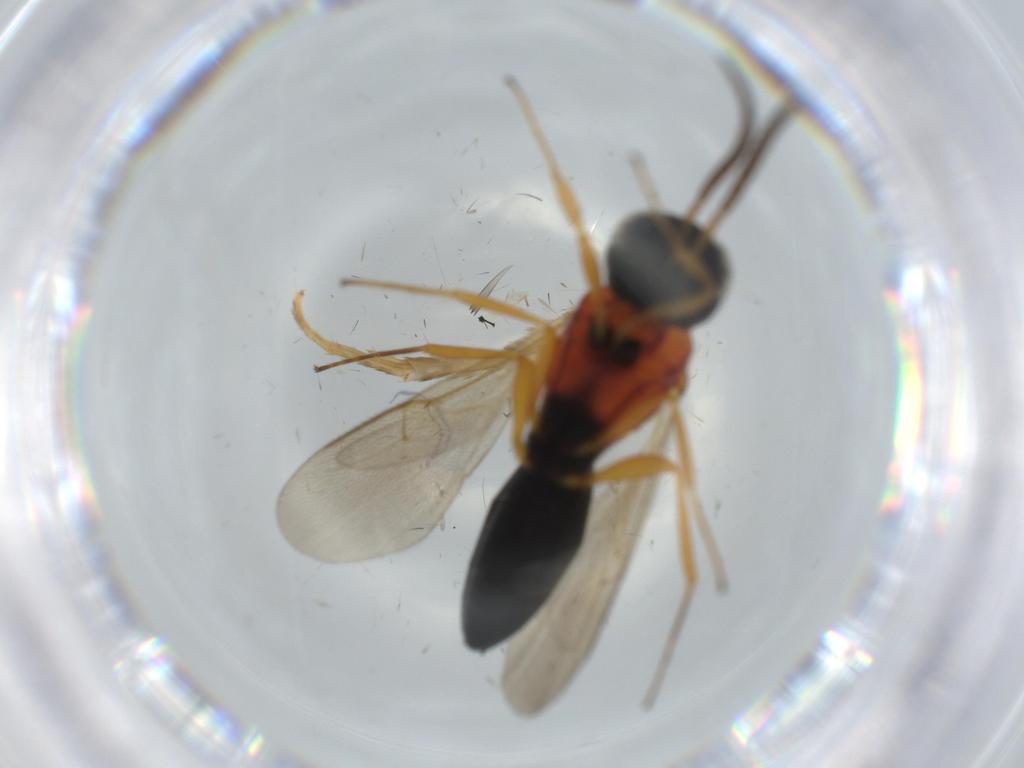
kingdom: Animalia
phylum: Arthropoda
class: Insecta
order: Hymenoptera
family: Scelionidae
